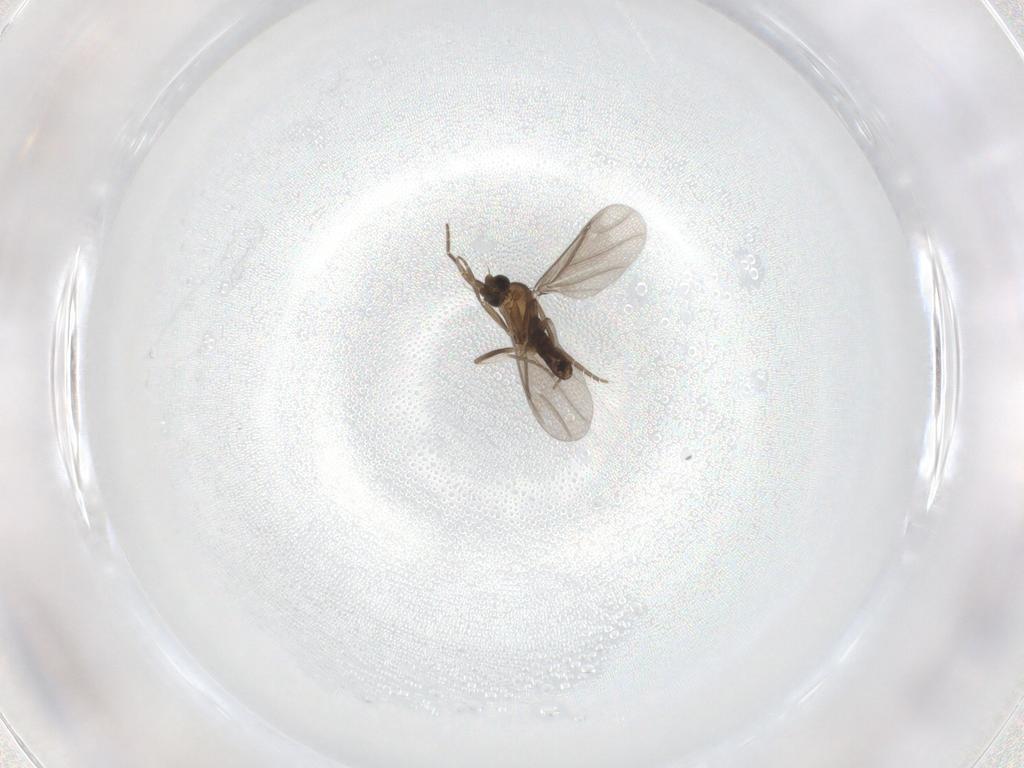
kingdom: Animalia
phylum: Arthropoda
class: Insecta
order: Diptera
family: Phoridae
